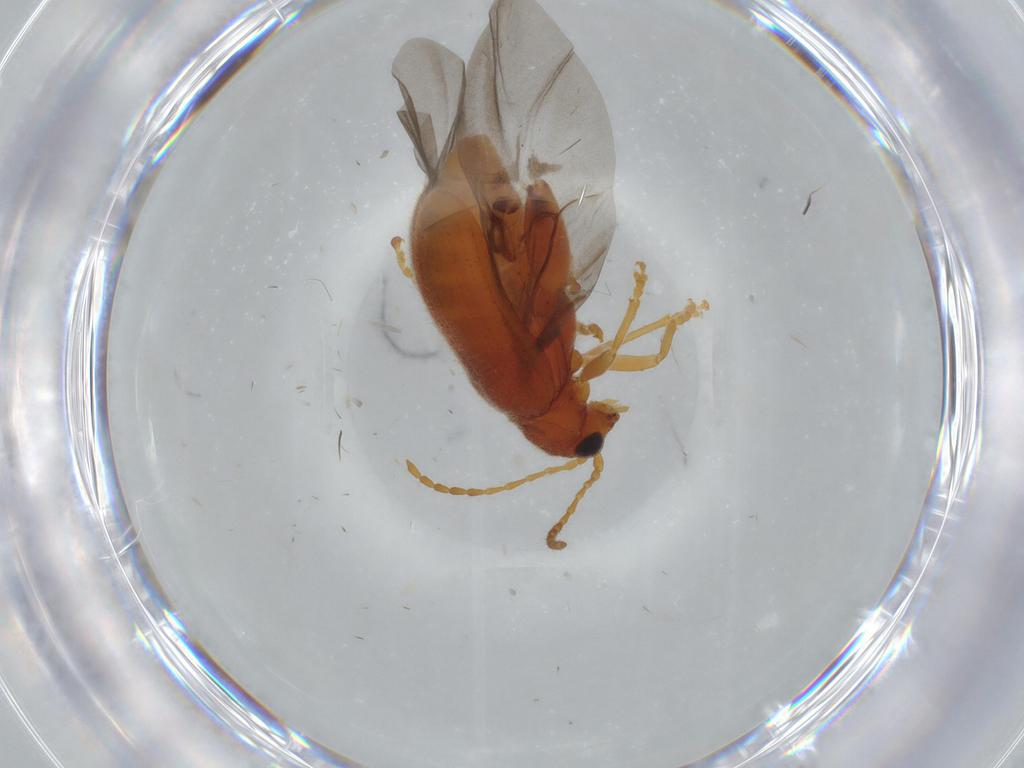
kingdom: Animalia
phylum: Arthropoda
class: Insecta
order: Coleoptera
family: Chrysomelidae
